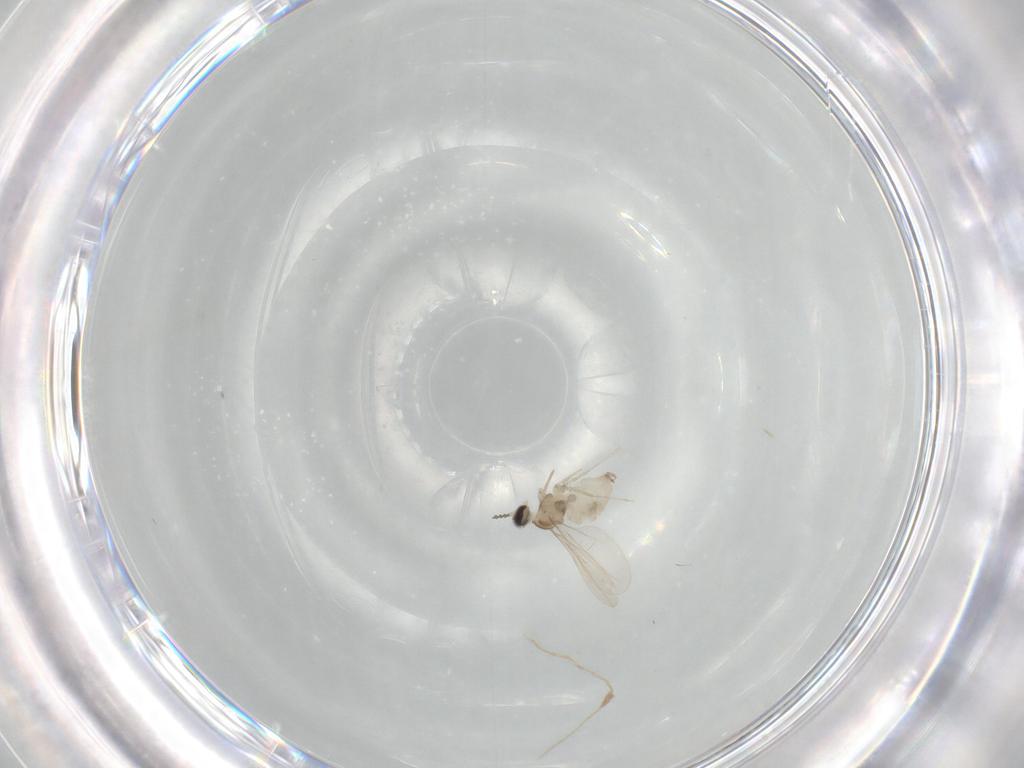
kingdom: Animalia
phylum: Arthropoda
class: Insecta
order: Diptera
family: Cecidomyiidae
